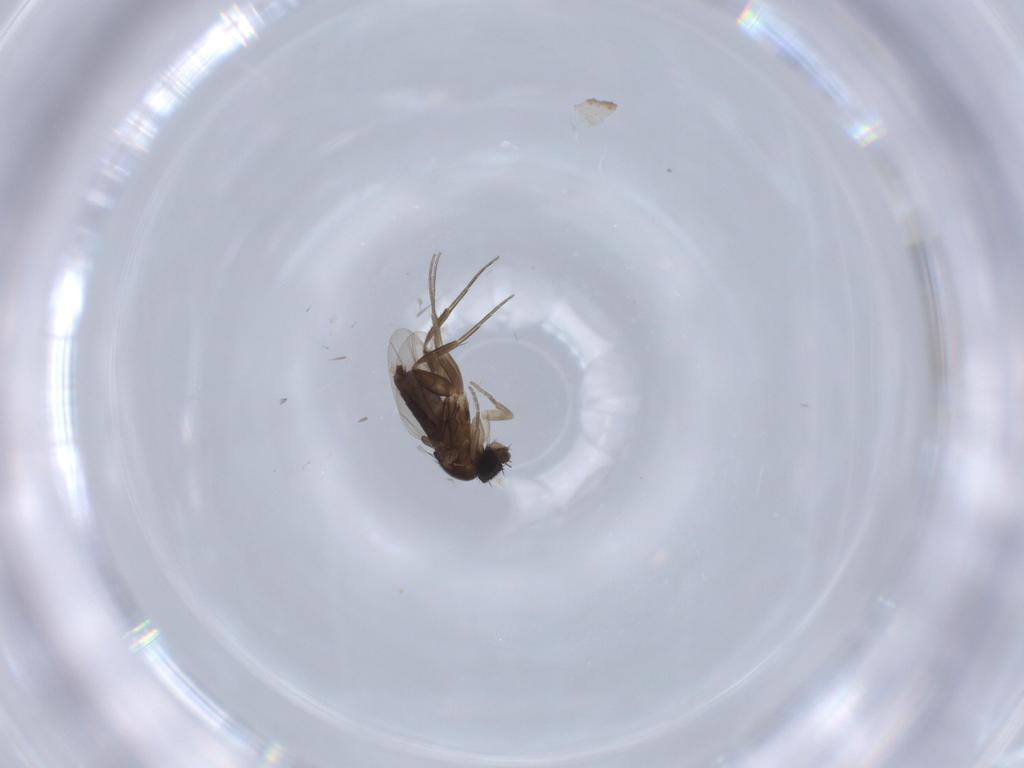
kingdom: Animalia
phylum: Arthropoda
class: Insecta
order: Diptera
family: Phoridae
